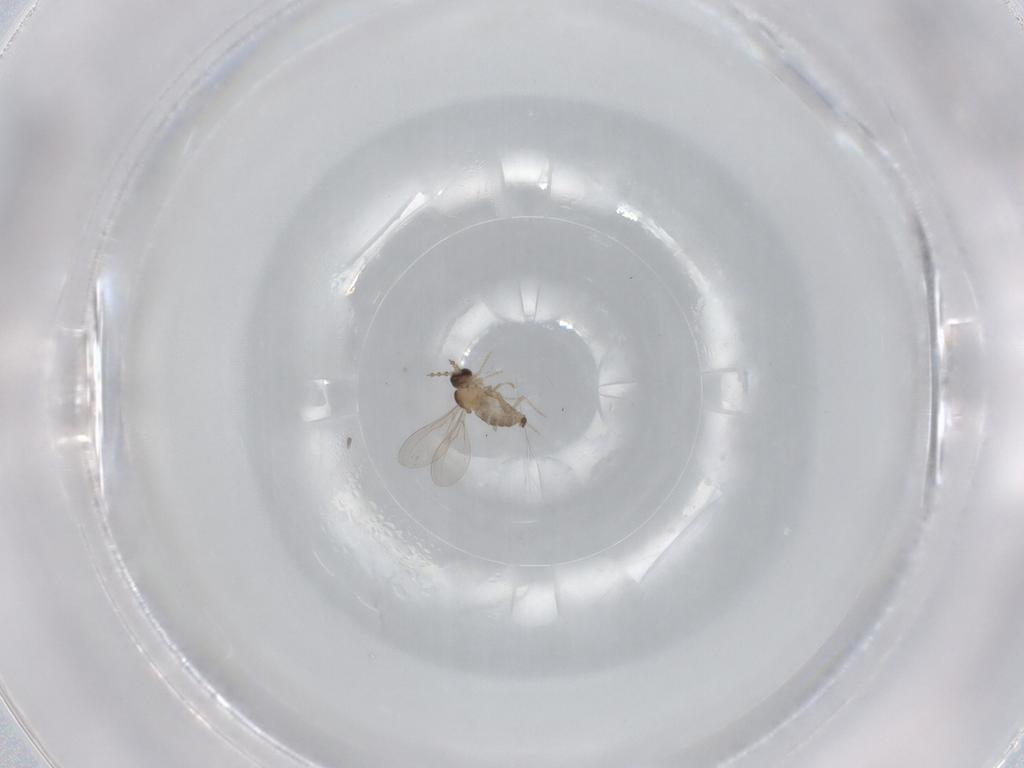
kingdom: Animalia
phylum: Arthropoda
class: Insecta
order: Diptera
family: Cecidomyiidae
